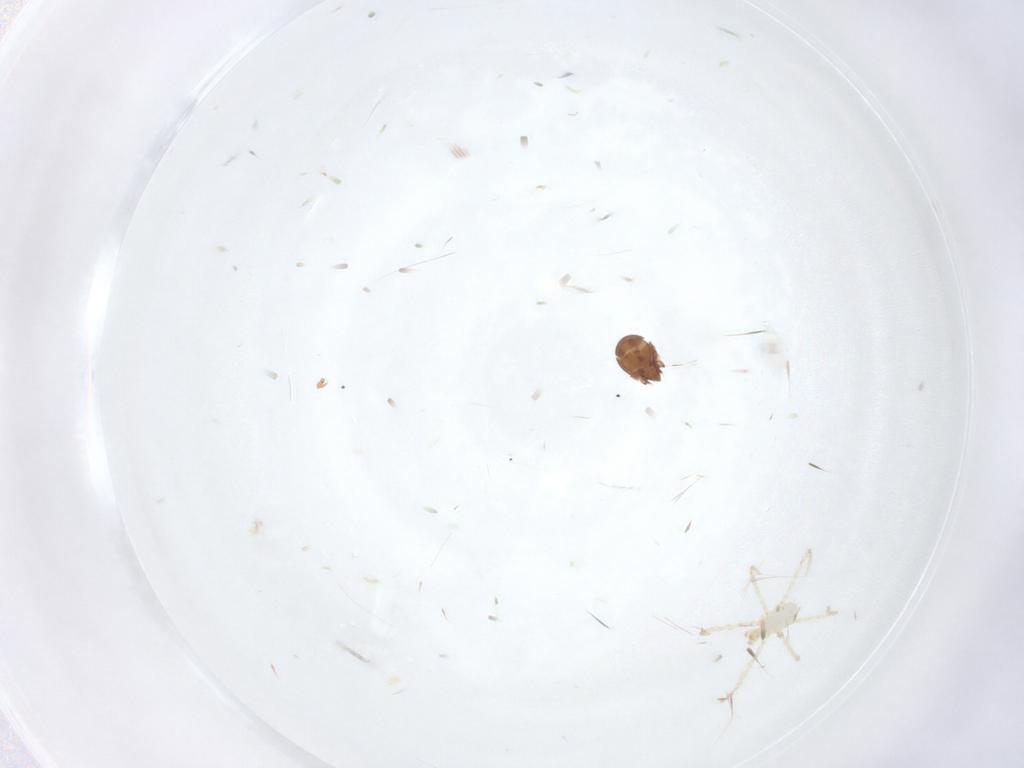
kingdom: Animalia
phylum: Arthropoda
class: Arachnida
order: Trombidiformes
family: Erythraeidae
